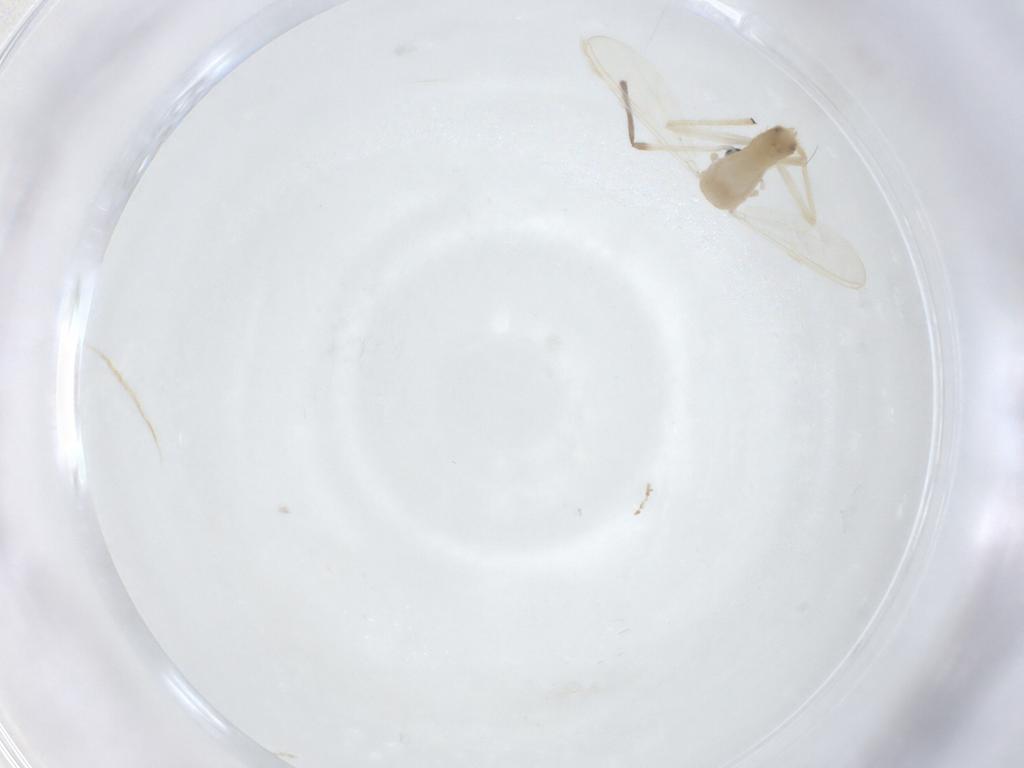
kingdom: Animalia
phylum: Arthropoda
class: Insecta
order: Diptera
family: Chironomidae
